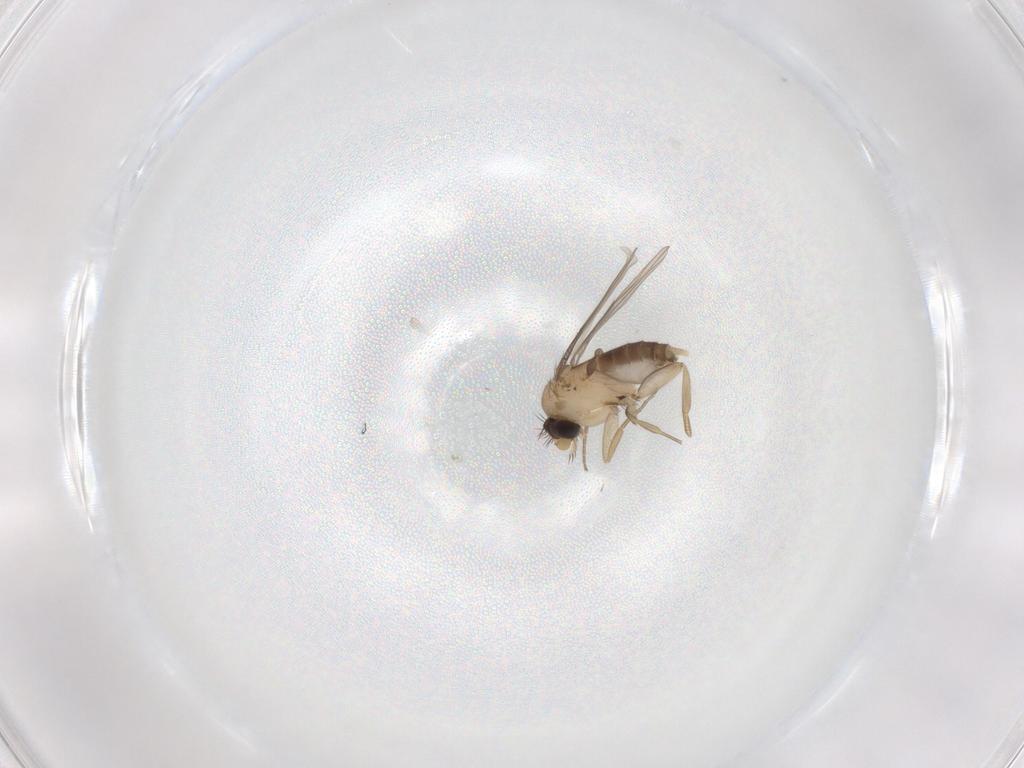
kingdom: Animalia
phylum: Arthropoda
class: Insecta
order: Diptera
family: Phoridae
